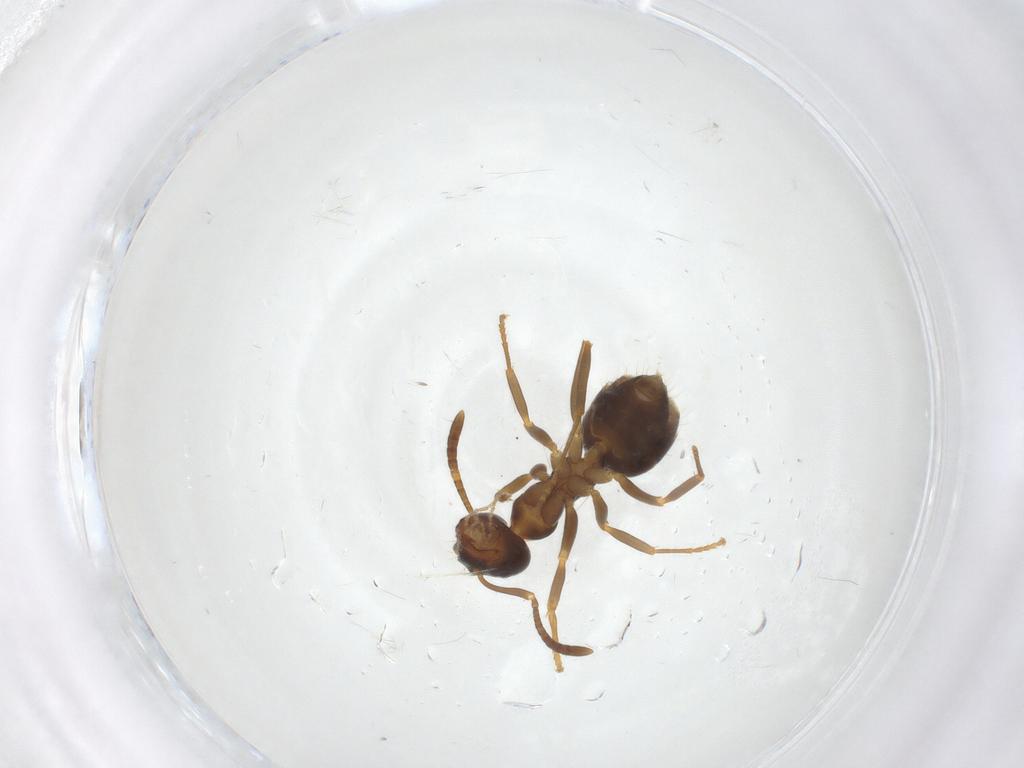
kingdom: Animalia
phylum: Arthropoda
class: Insecta
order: Hymenoptera
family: Formicidae
